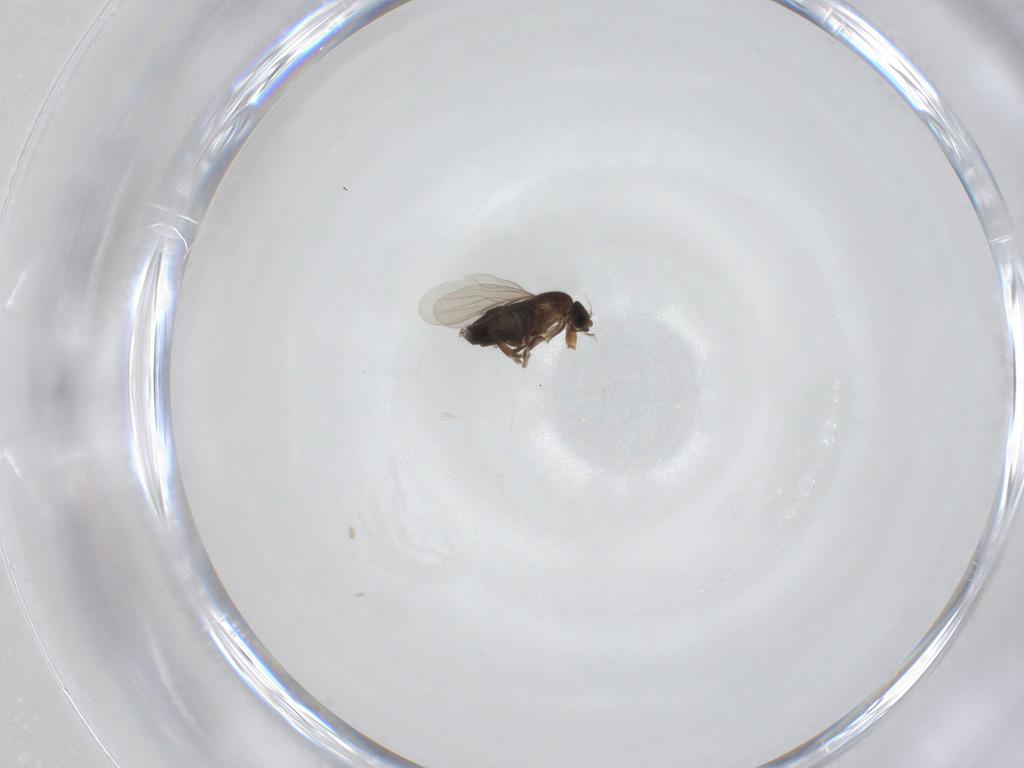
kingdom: Animalia
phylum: Arthropoda
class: Insecta
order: Diptera
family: Phoridae
